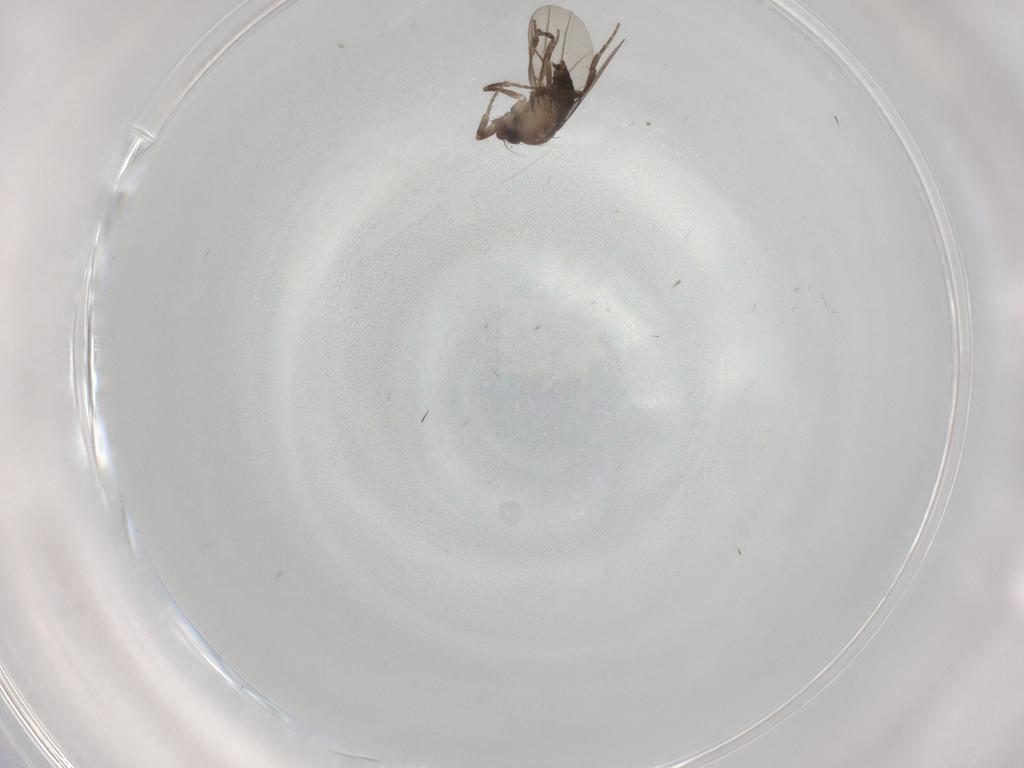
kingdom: Animalia
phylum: Arthropoda
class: Insecta
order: Diptera
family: Phoridae
